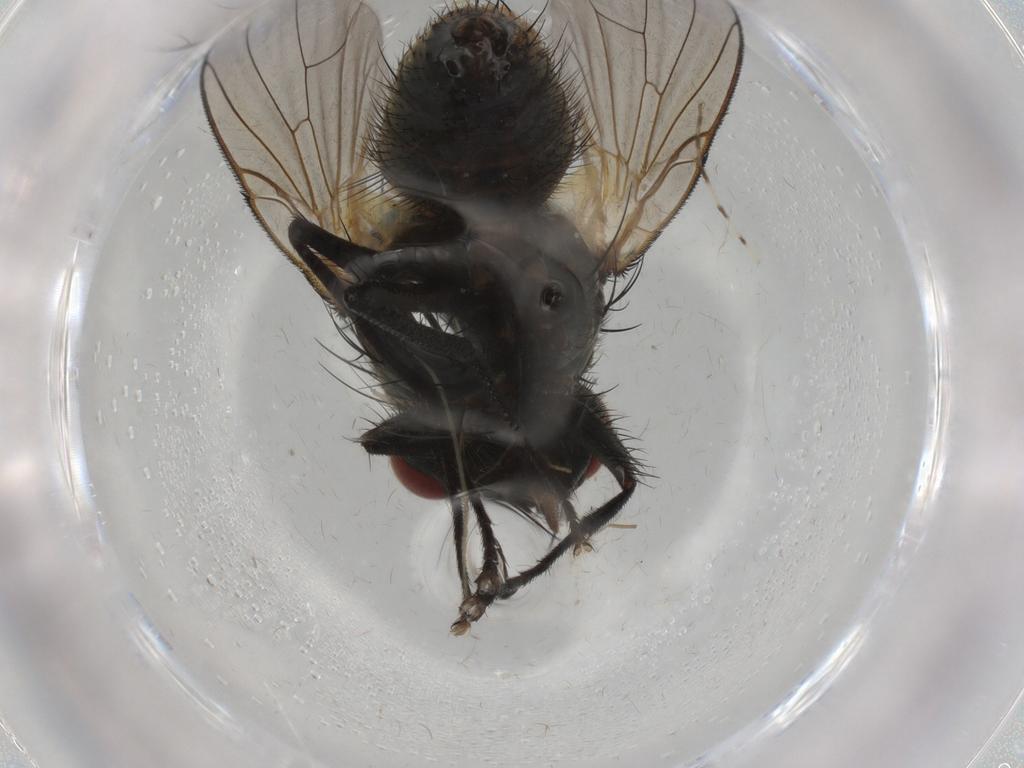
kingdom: Animalia
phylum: Arthropoda
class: Insecta
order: Diptera
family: Muscidae
